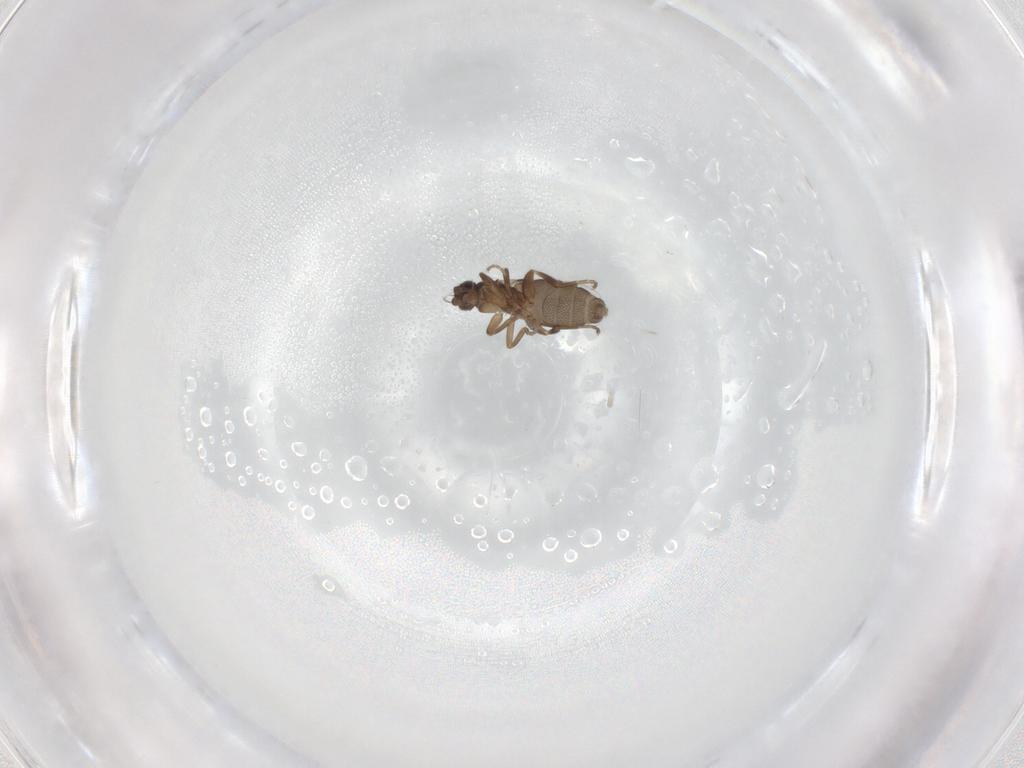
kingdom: Animalia
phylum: Arthropoda
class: Insecta
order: Diptera
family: Cecidomyiidae
